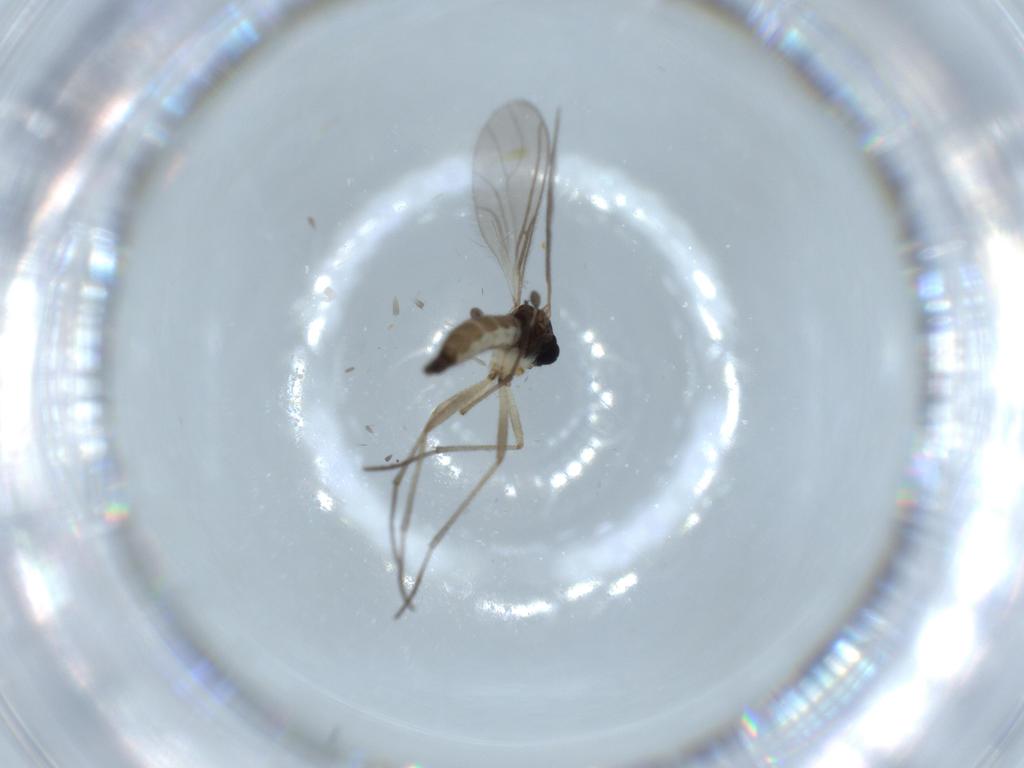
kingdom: Animalia
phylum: Arthropoda
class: Insecta
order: Diptera
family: Sciaridae
